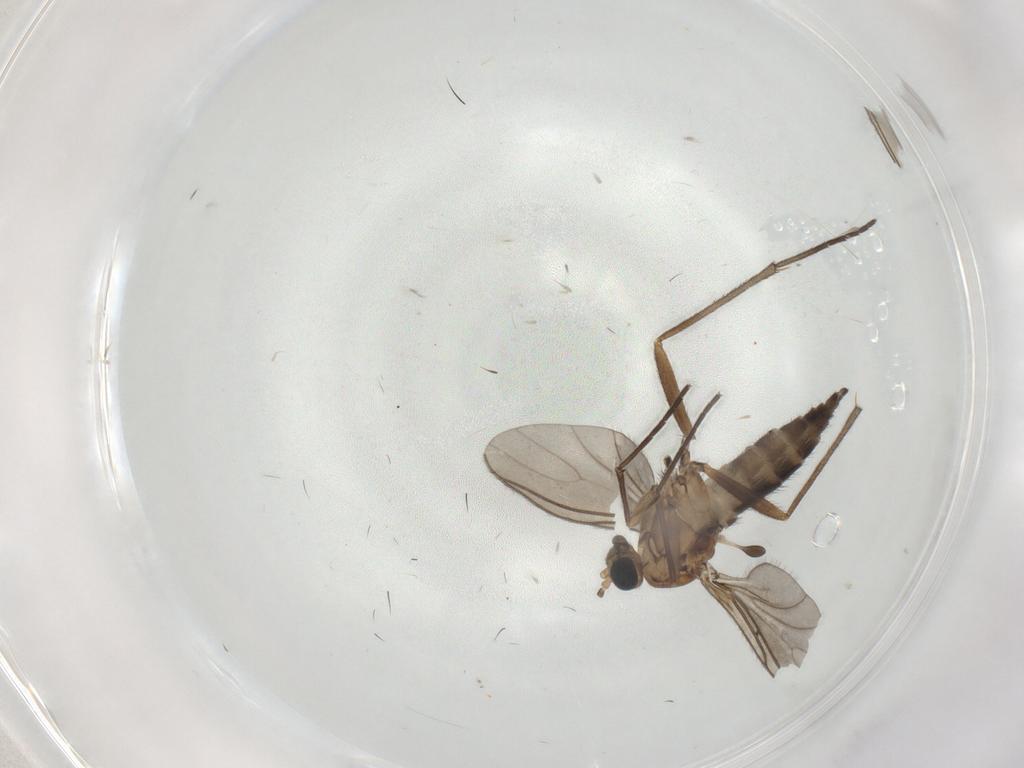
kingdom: Animalia
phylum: Arthropoda
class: Insecta
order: Diptera
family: Sciaridae
